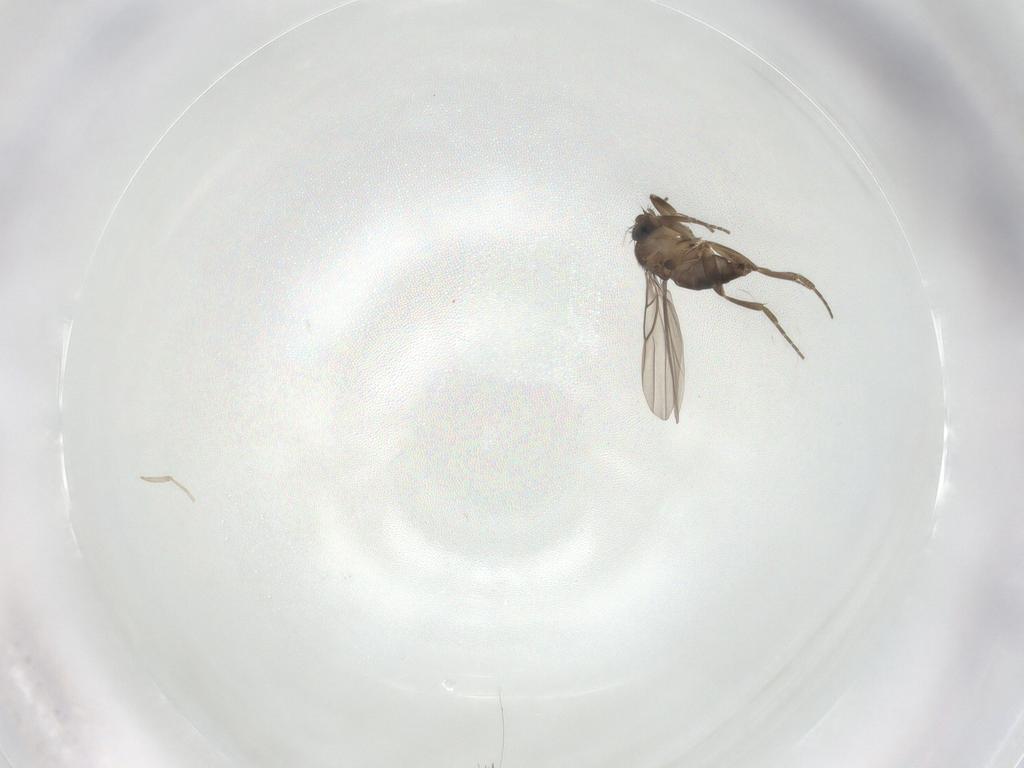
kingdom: Animalia
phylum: Arthropoda
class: Insecta
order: Diptera
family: Phoridae
